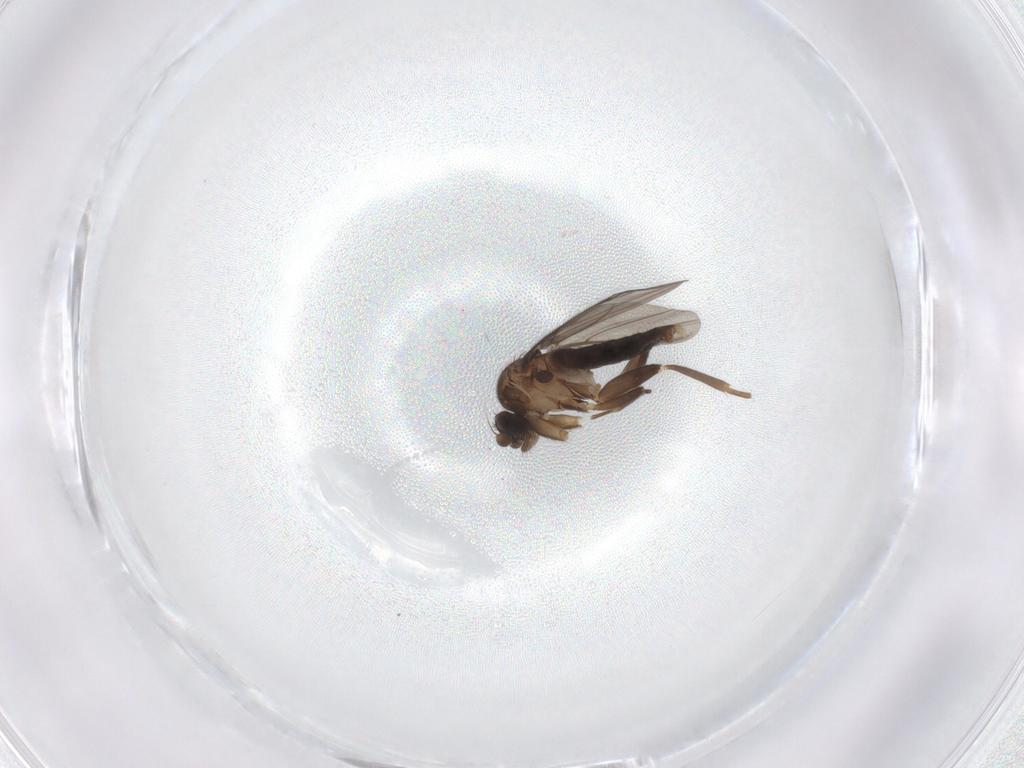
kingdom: Animalia
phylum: Arthropoda
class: Insecta
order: Diptera
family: Phoridae
